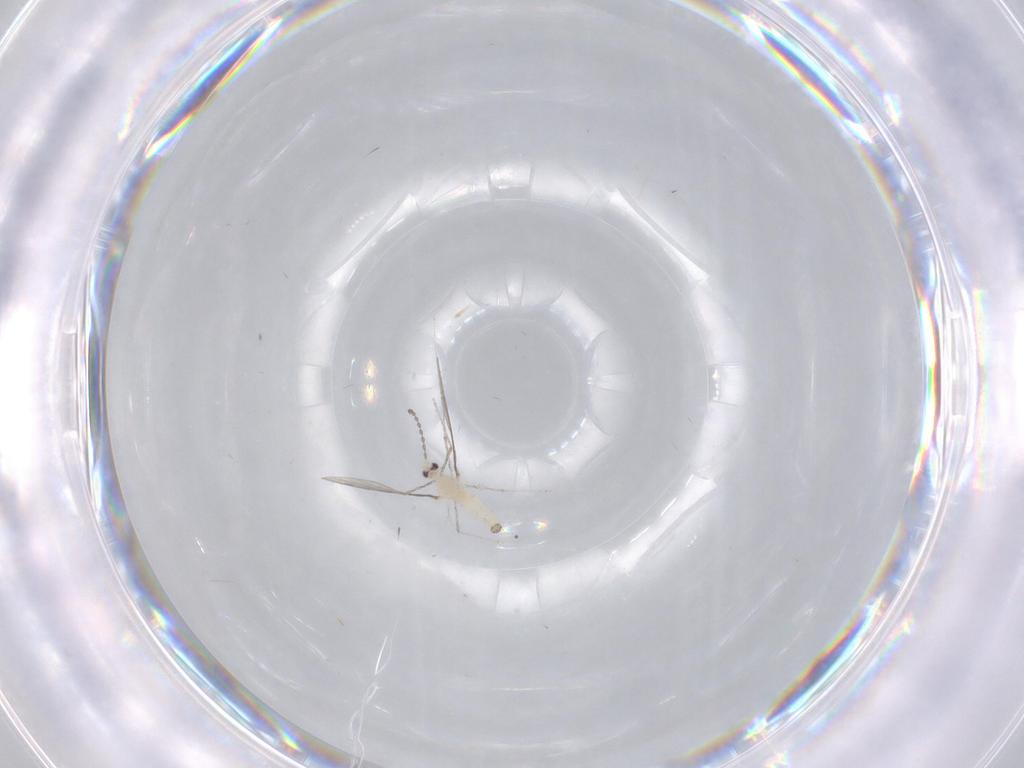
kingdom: Animalia
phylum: Arthropoda
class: Insecta
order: Diptera
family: Cecidomyiidae
